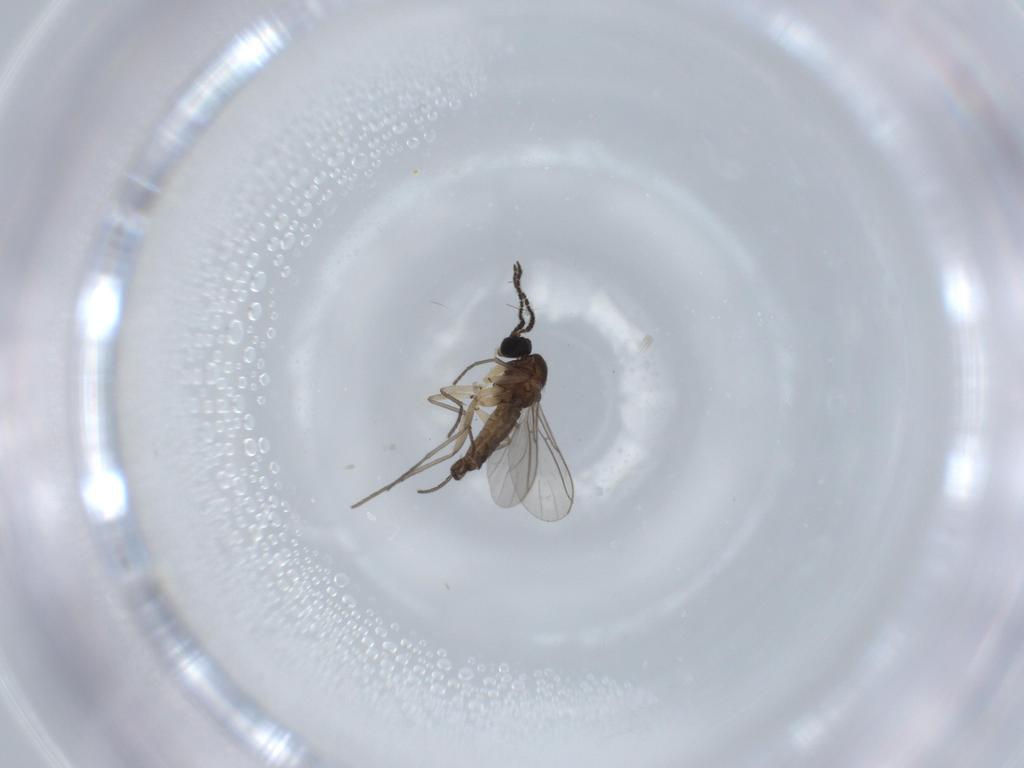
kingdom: Animalia
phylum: Arthropoda
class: Insecta
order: Diptera
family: Sciaridae
